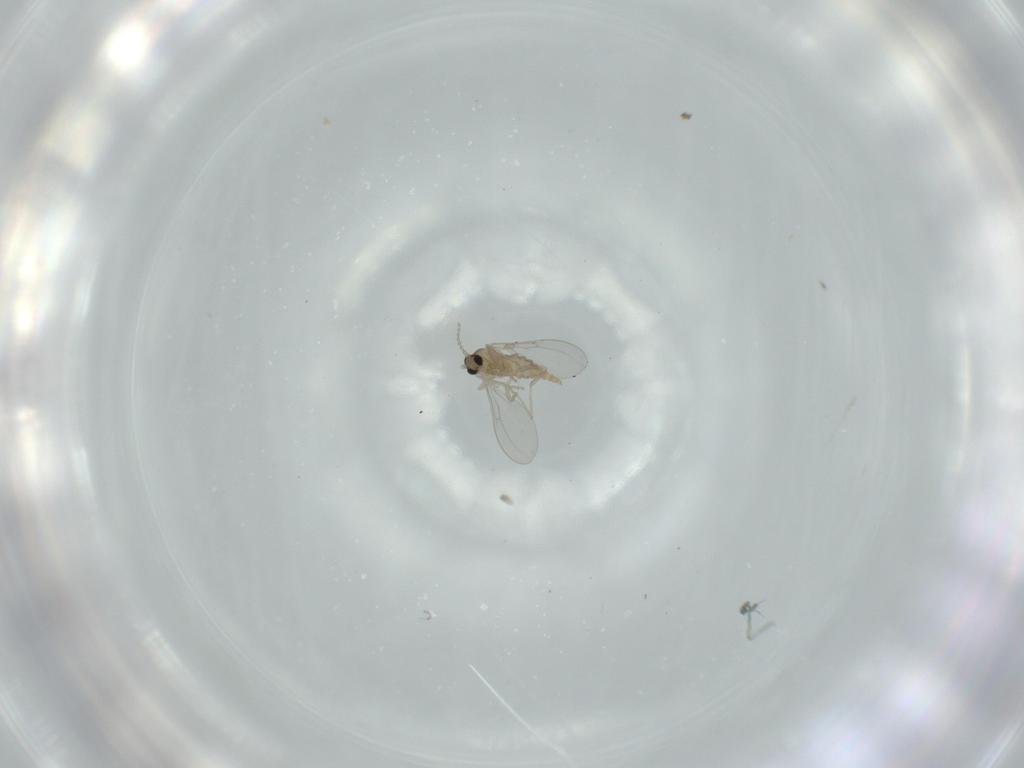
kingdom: Animalia
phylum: Arthropoda
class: Insecta
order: Diptera
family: Cecidomyiidae
